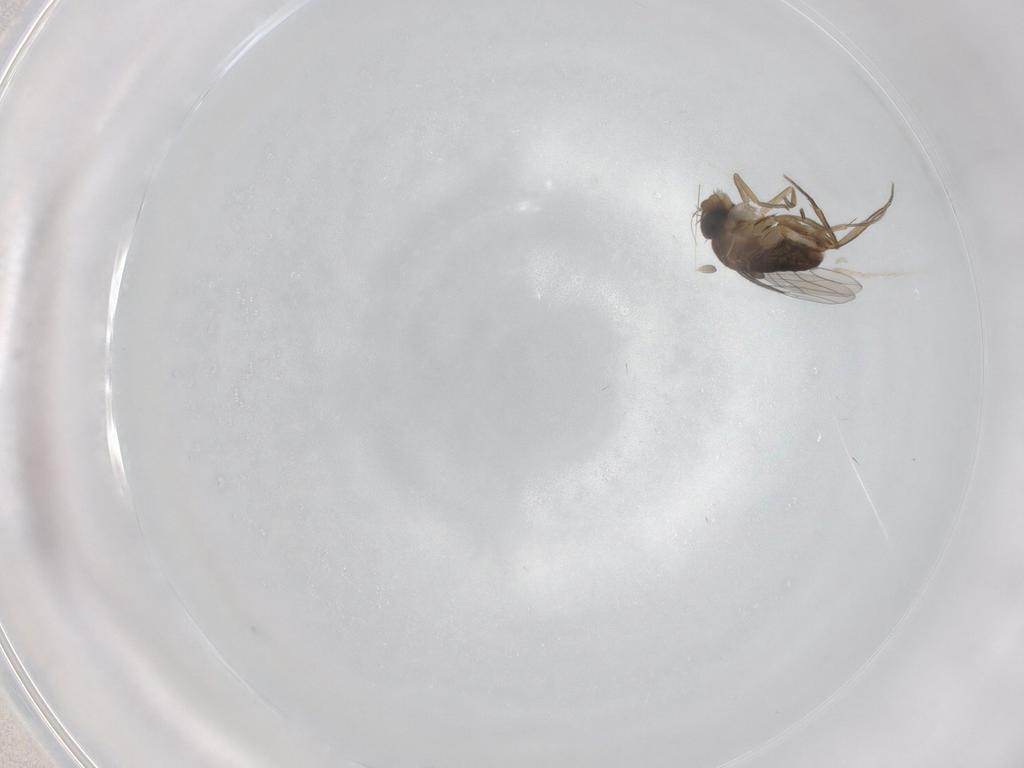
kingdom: Animalia
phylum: Arthropoda
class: Insecta
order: Diptera
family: Phoridae
